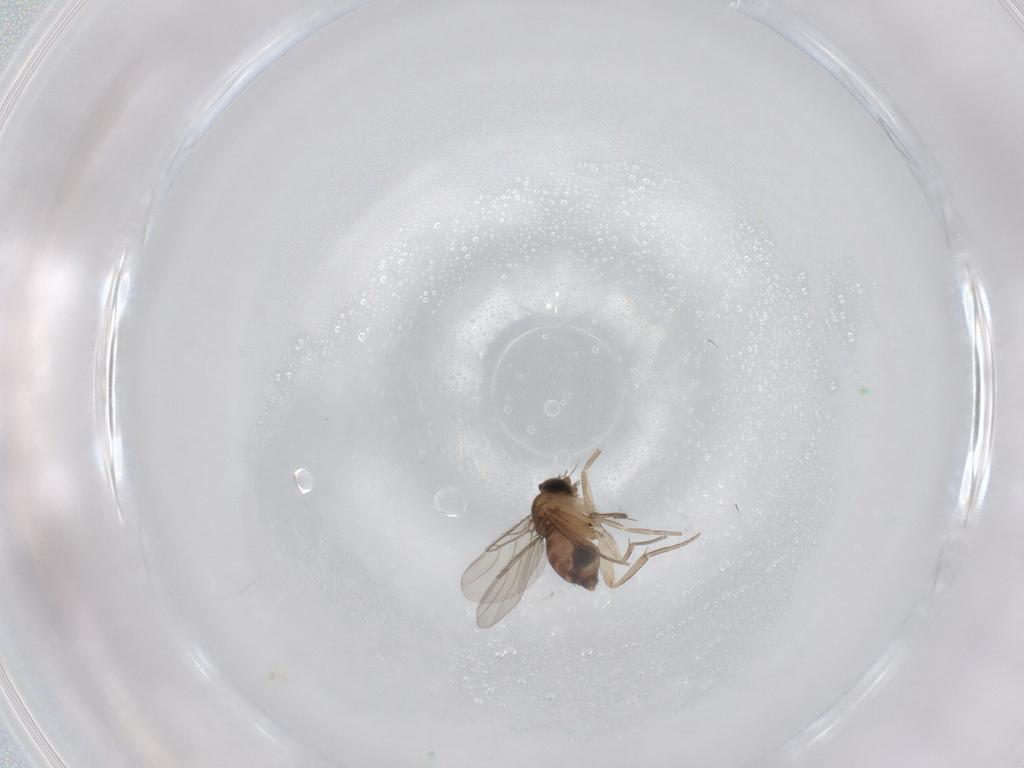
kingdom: Animalia
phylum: Arthropoda
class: Insecta
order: Diptera
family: Phoridae
